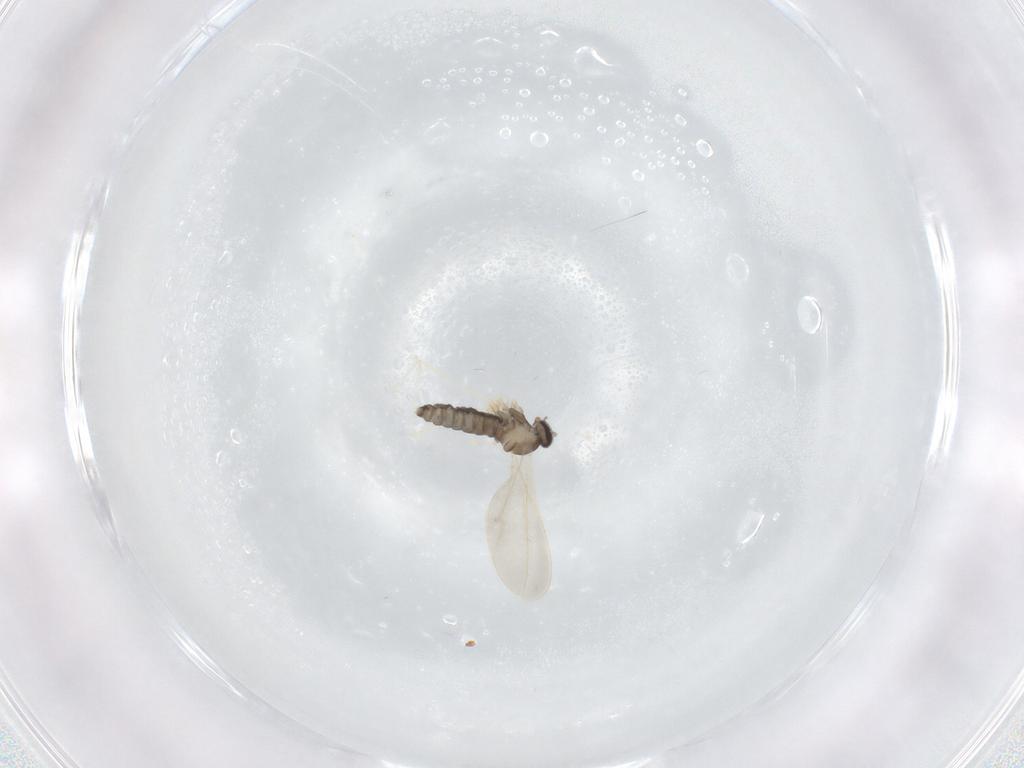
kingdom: Animalia
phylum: Arthropoda
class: Insecta
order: Diptera
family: Cecidomyiidae
